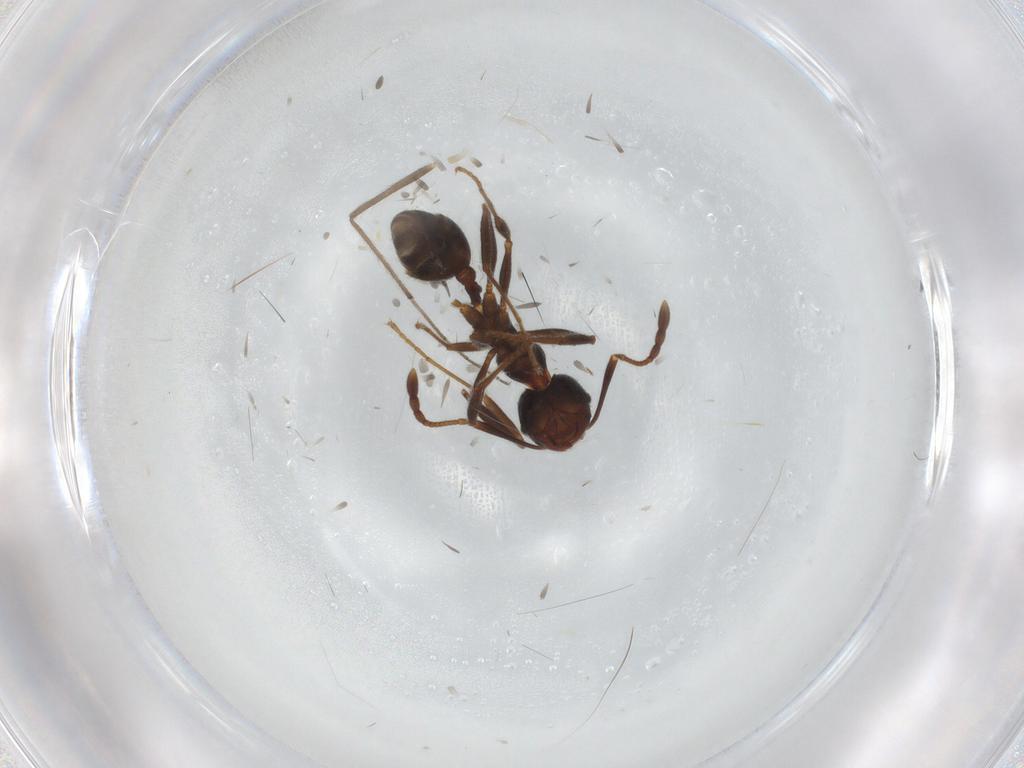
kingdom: Animalia
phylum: Arthropoda
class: Insecta
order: Hymenoptera
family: Formicidae
